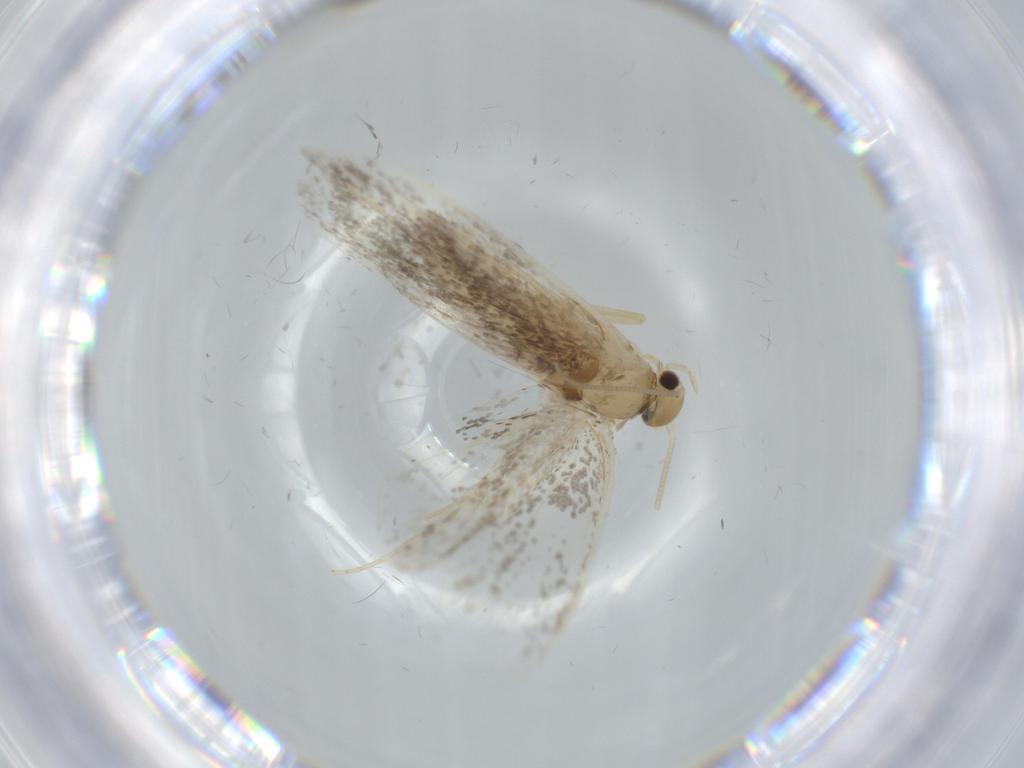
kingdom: Animalia
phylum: Arthropoda
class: Insecta
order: Lepidoptera
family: Dryadaulidae
